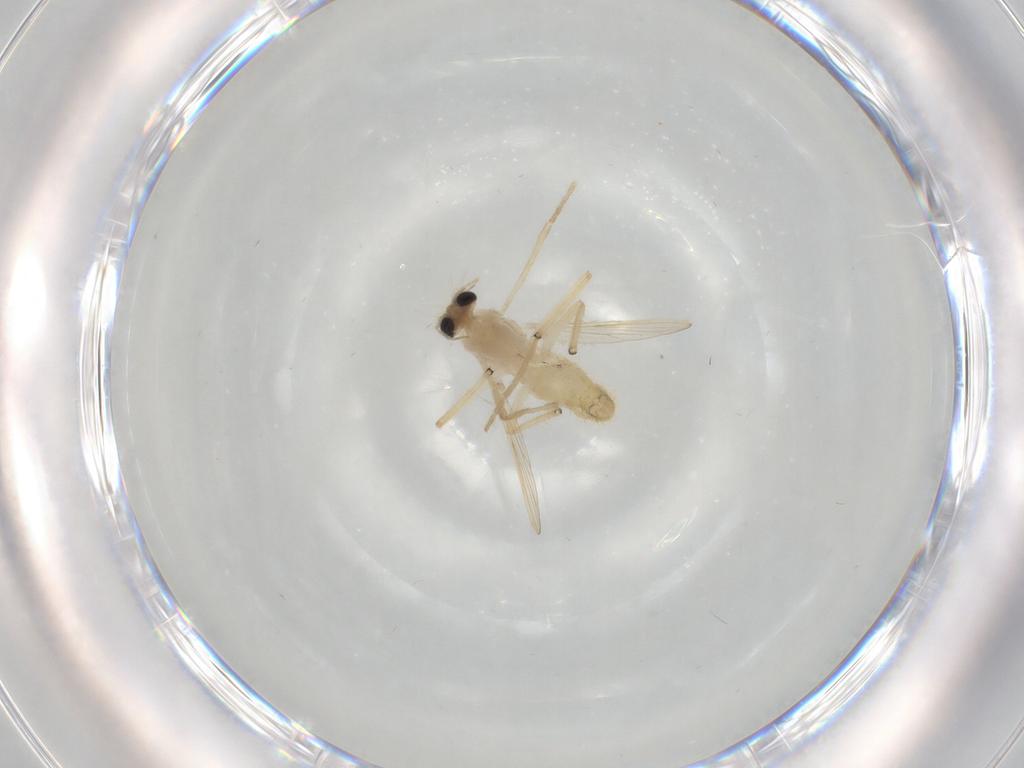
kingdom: Animalia
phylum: Arthropoda
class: Insecta
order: Diptera
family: Chironomidae
